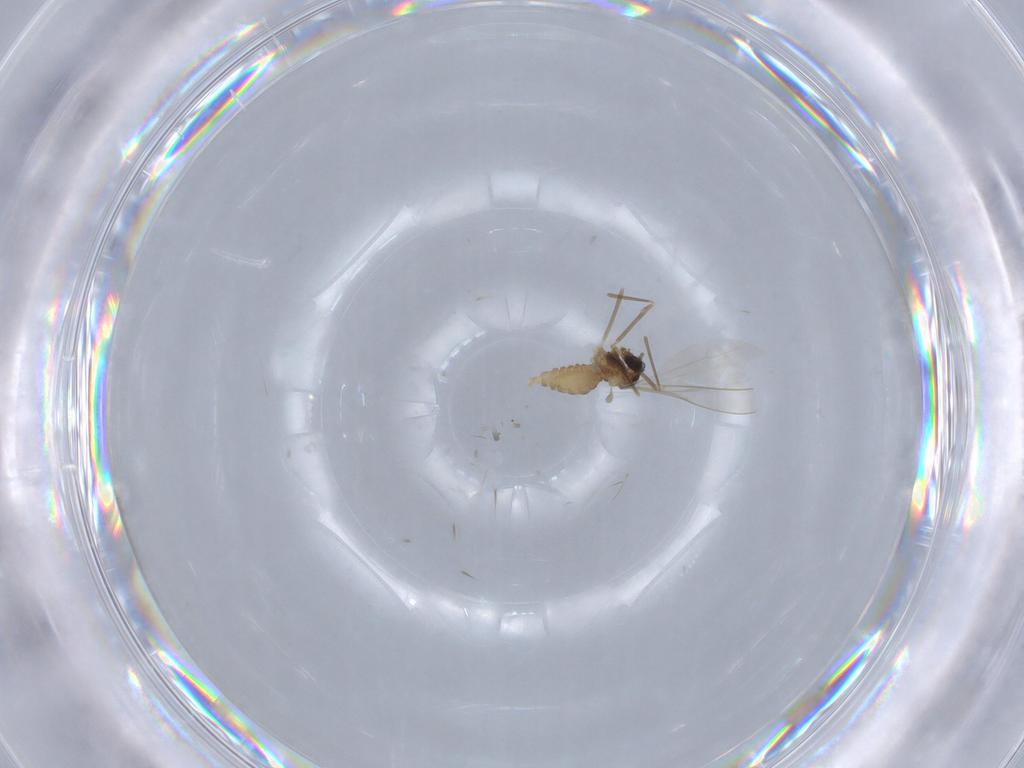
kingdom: Animalia
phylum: Arthropoda
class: Insecta
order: Diptera
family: Cecidomyiidae
